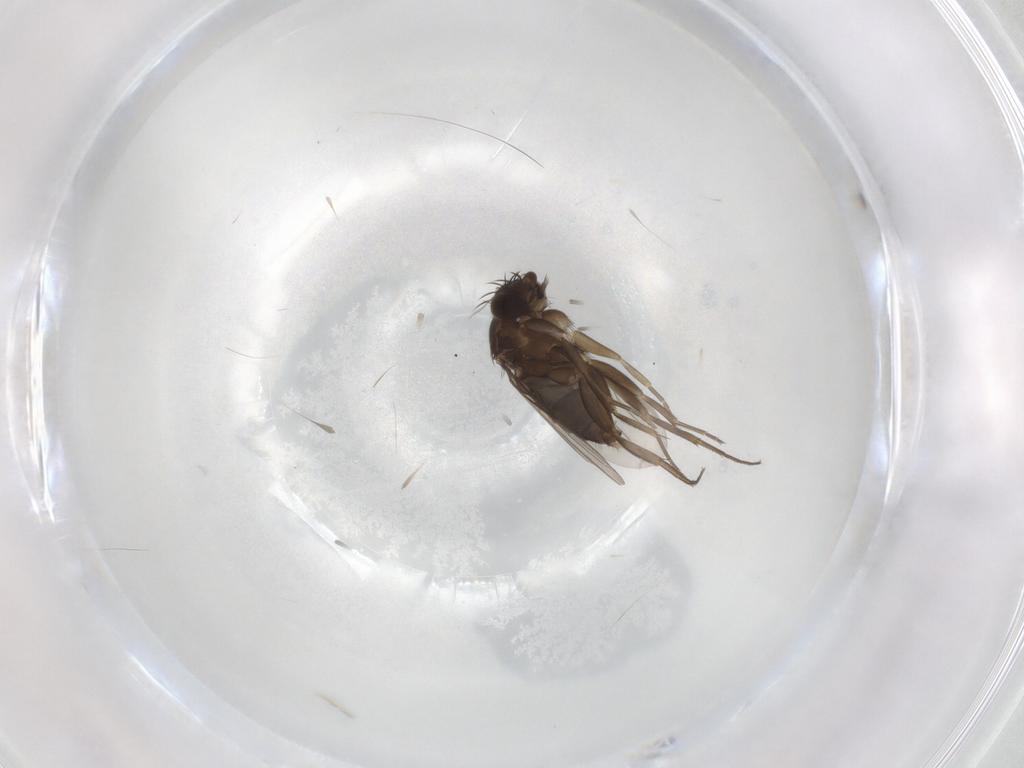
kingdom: Animalia
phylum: Arthropoda
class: Insecta
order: Diptera
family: Phoridae
